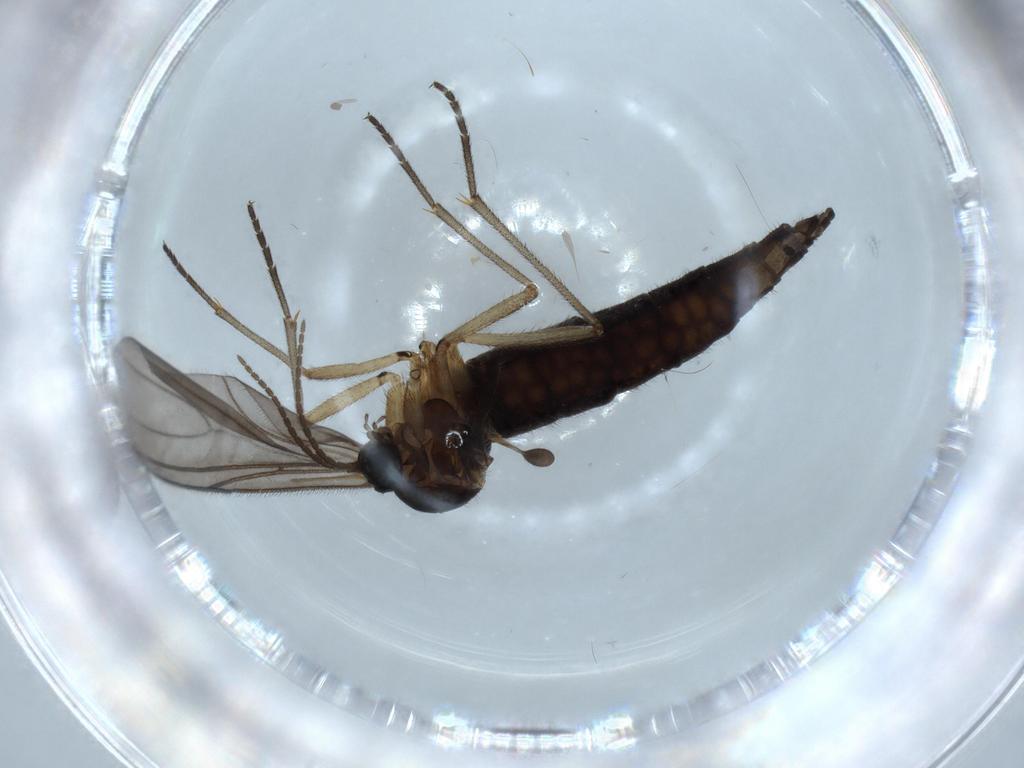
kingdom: Animalia
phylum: Arthropoda
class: Insecta
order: Diptera
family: Sciaridae
